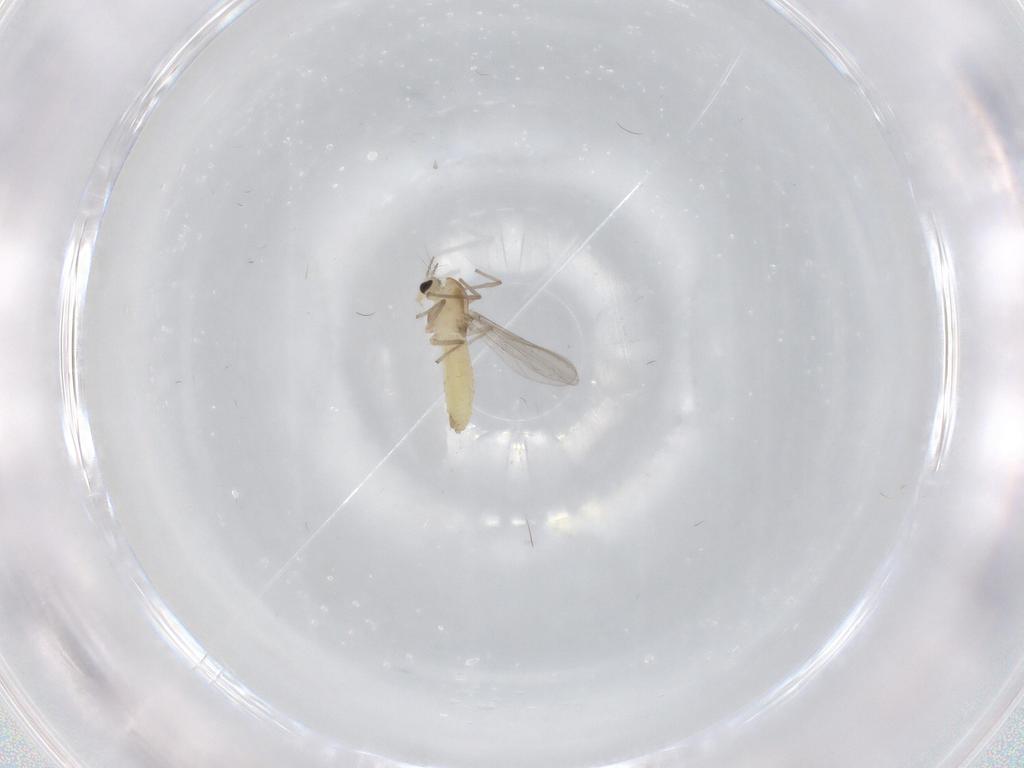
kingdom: Animalia
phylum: Arthropoda
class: Insecta
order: Diptera
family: Chironomidae
